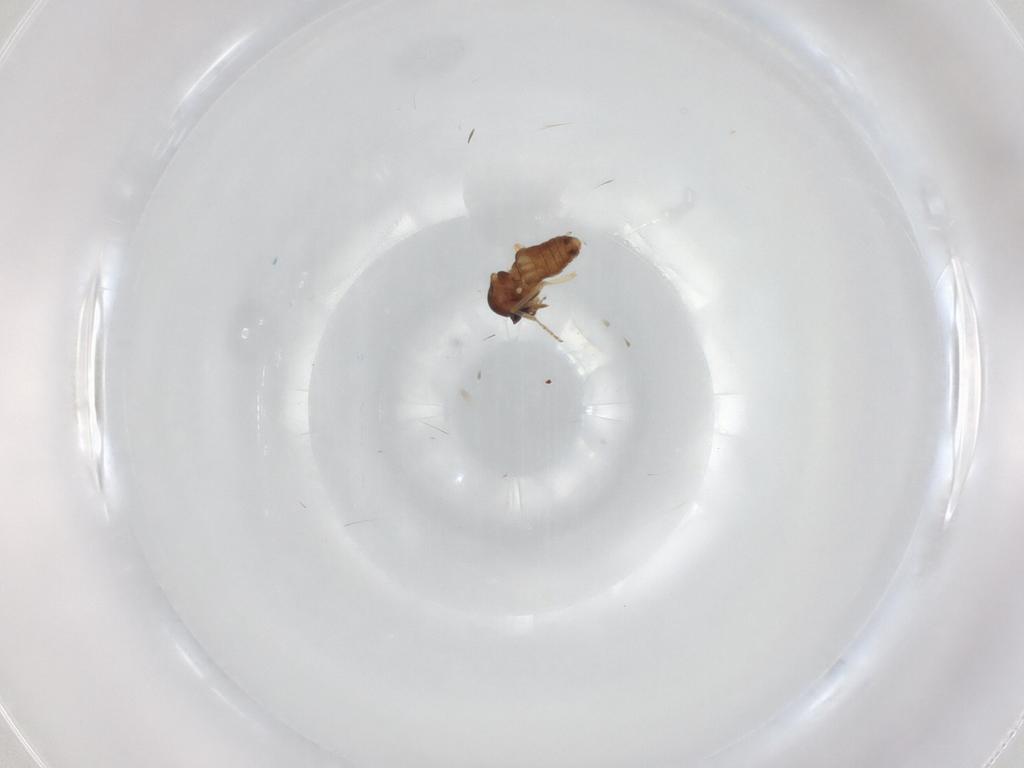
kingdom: Animalia
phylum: Arthropoda
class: Insecta
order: Diptera
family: Ceratopogonidae
